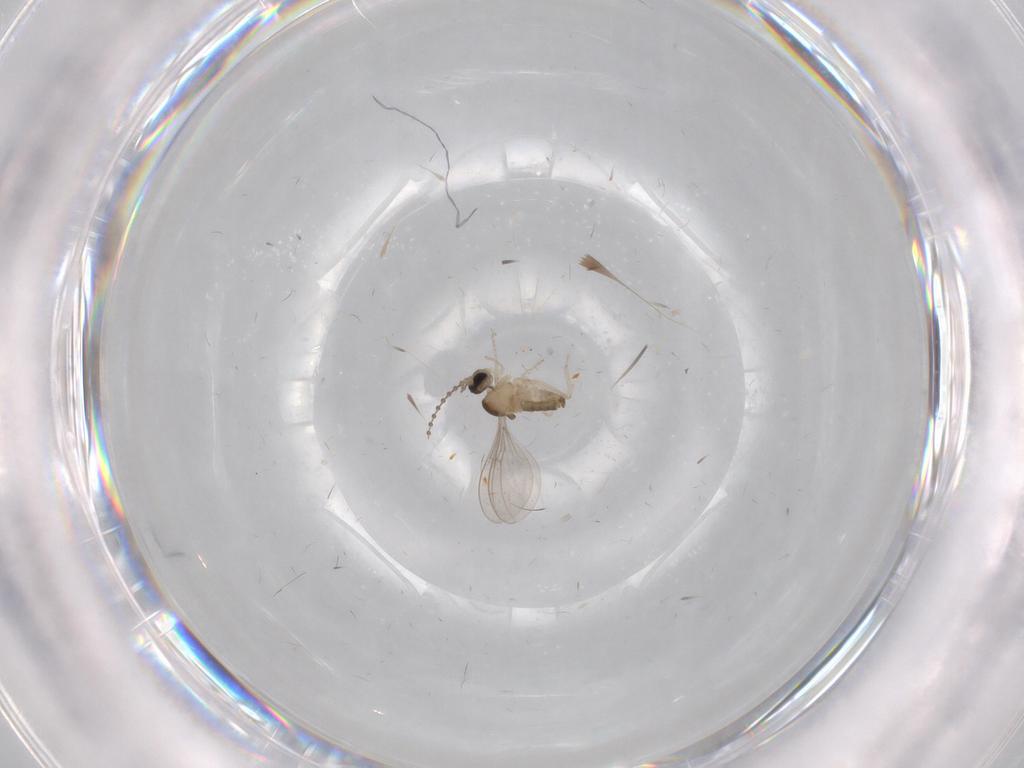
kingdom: Animalia
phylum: Arthropoda
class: Insecta
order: Diptera
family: Cecidomyiidae
